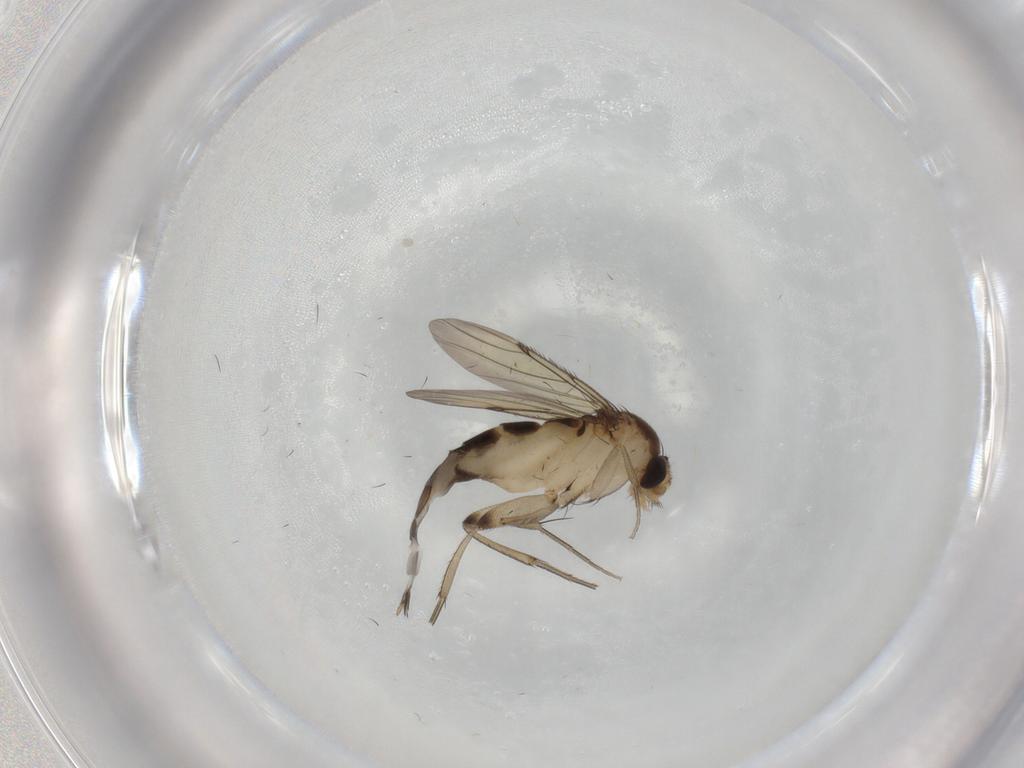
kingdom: Animalia
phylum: Arthropoda
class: Insecta
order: Diptera
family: Phoridae
